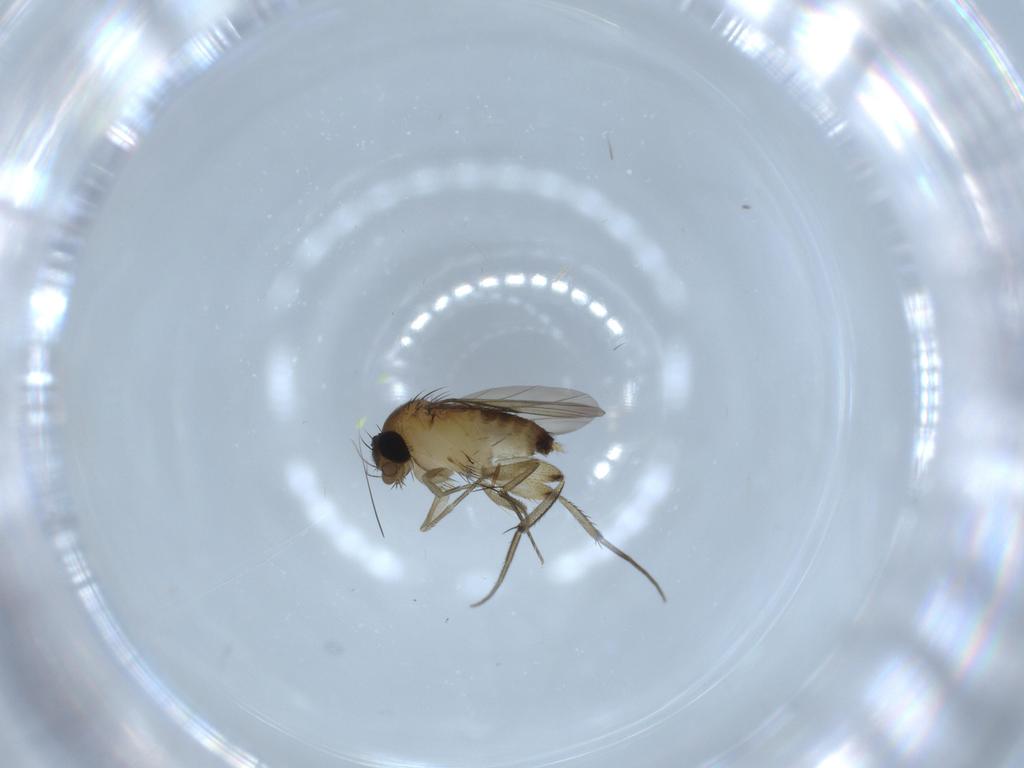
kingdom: Animalia
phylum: Arthropoda
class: Insecta
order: Diptera
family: Phoridae
